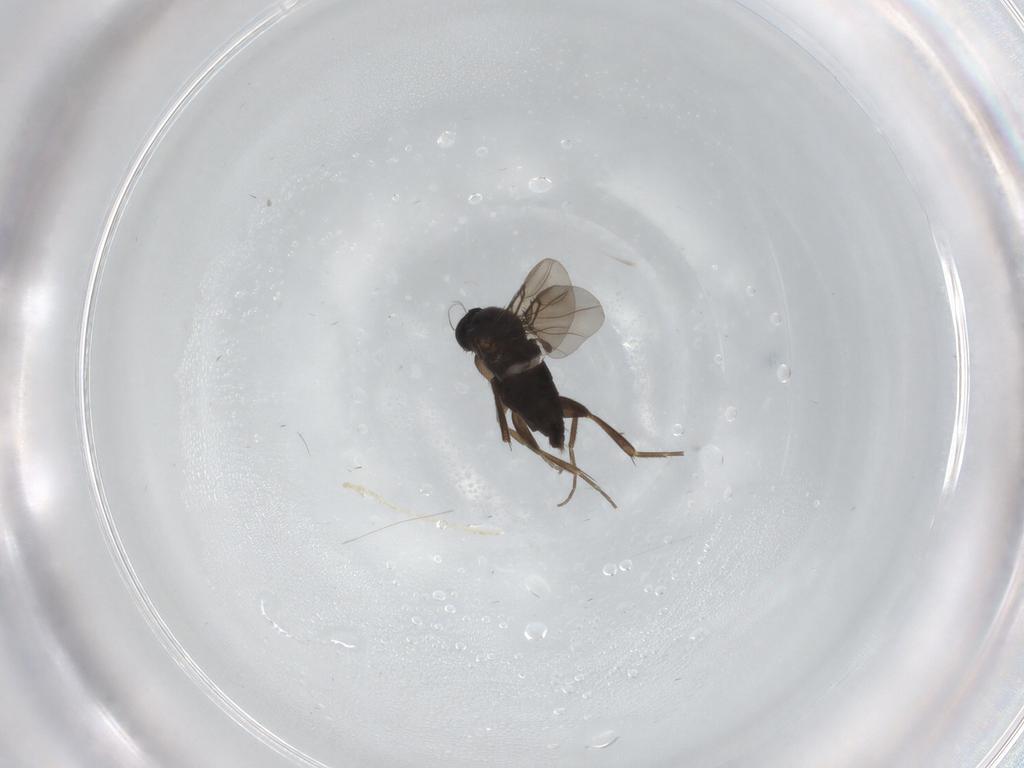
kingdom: Animalia
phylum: Arthropoda
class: Insecta
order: Diptera
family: Phoridae
